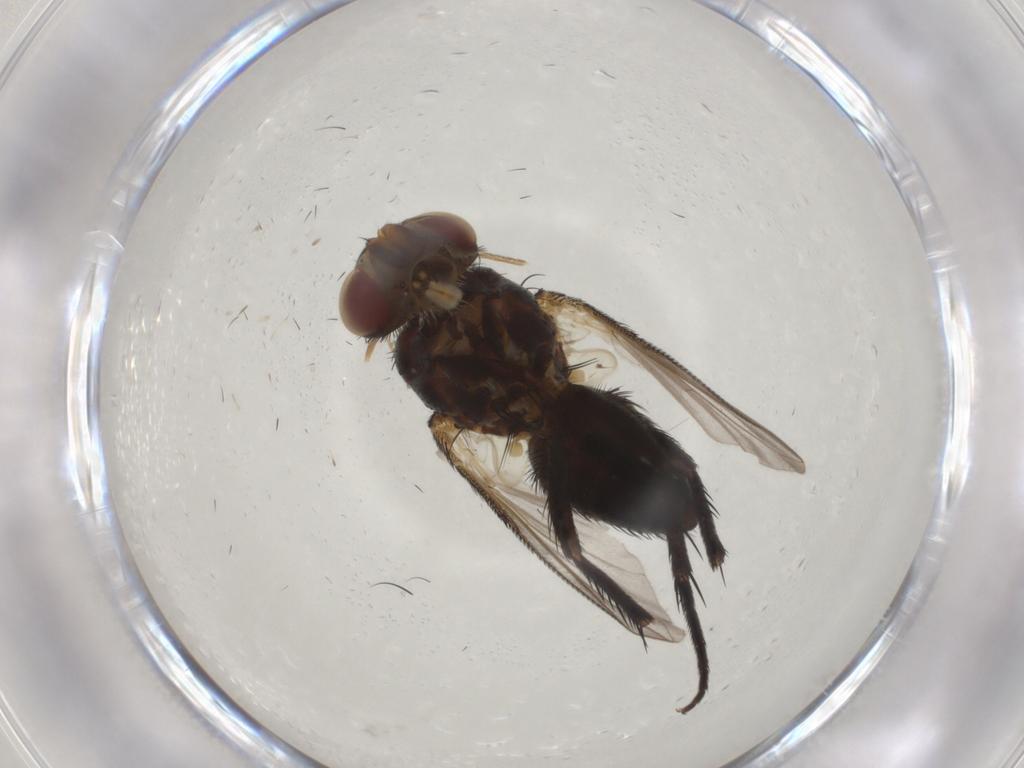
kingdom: Animalia
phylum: Arthropoda
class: Insecta
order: Diptera
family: Tachinidae
